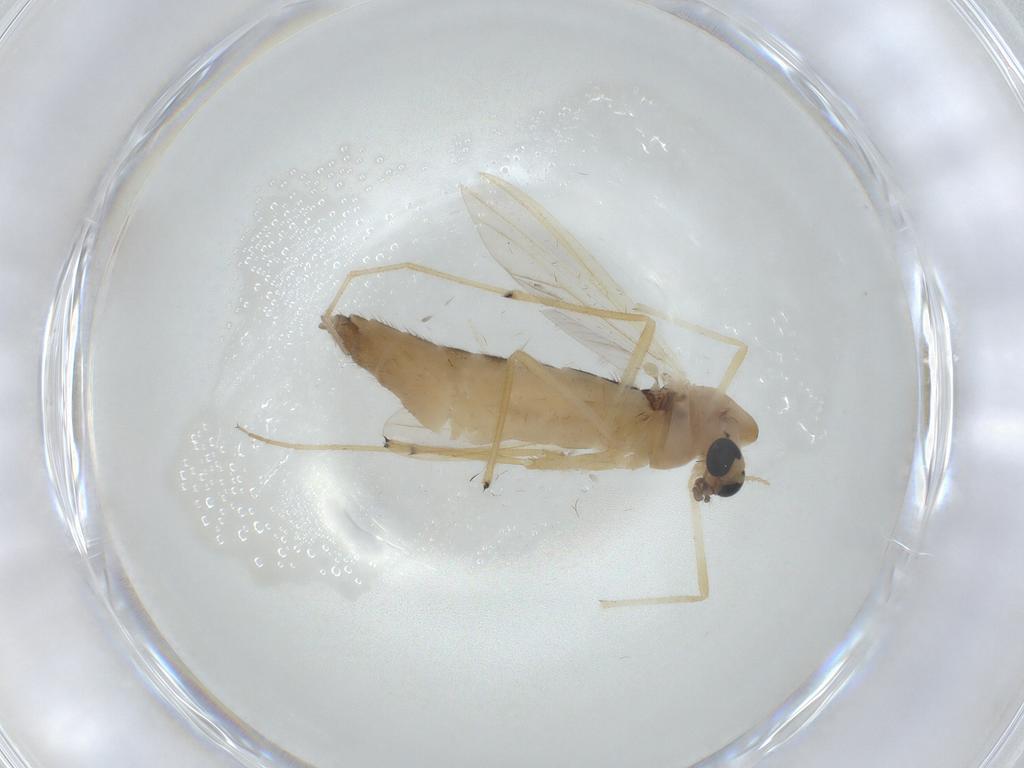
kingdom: Animalia
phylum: Arthropoda
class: Insecta
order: Diptera
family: Chironomidae
